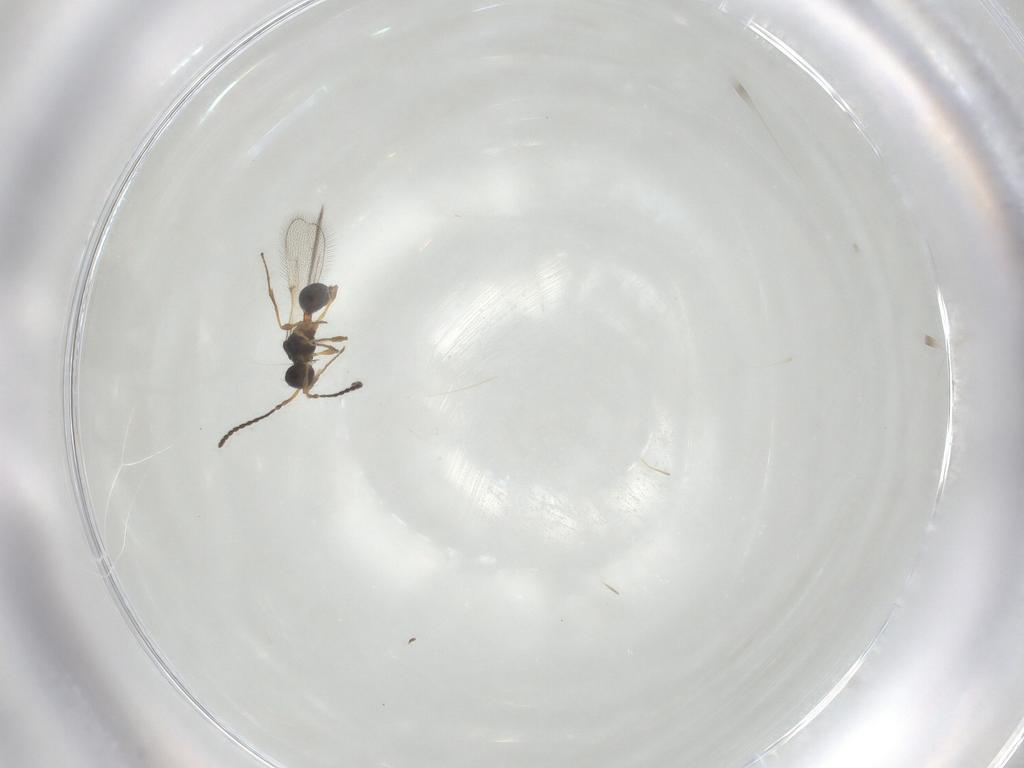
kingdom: Animalia
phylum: Arthropoda
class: Insecta
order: Hymenoptera
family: Diapriidae
